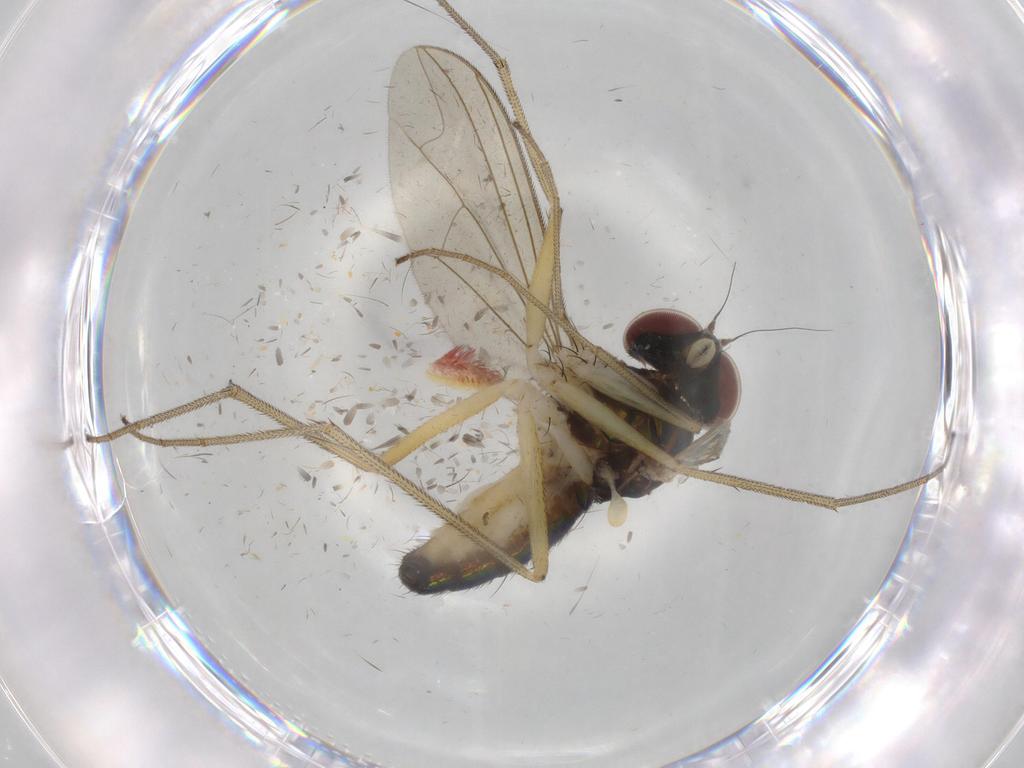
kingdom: Animalia
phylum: Arthropoda
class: Insecta
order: Diptera
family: Dolichopodidae
